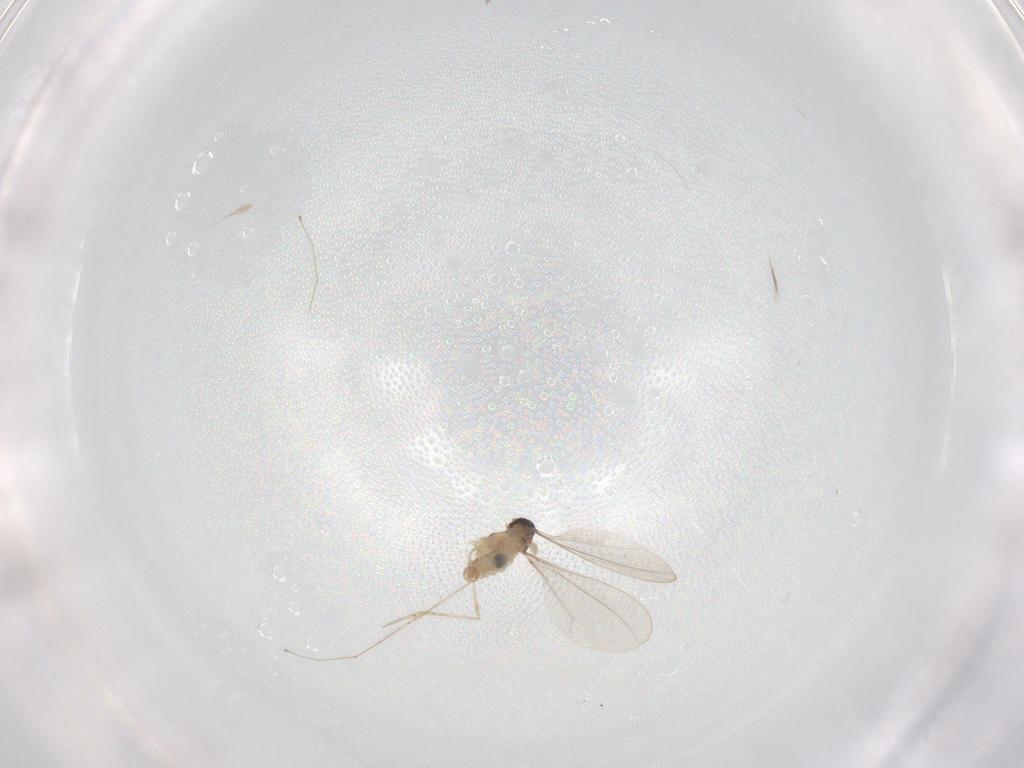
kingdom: Animalia
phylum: Arthropoda
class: Insecta
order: Diptera
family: Cecidomyiidae
